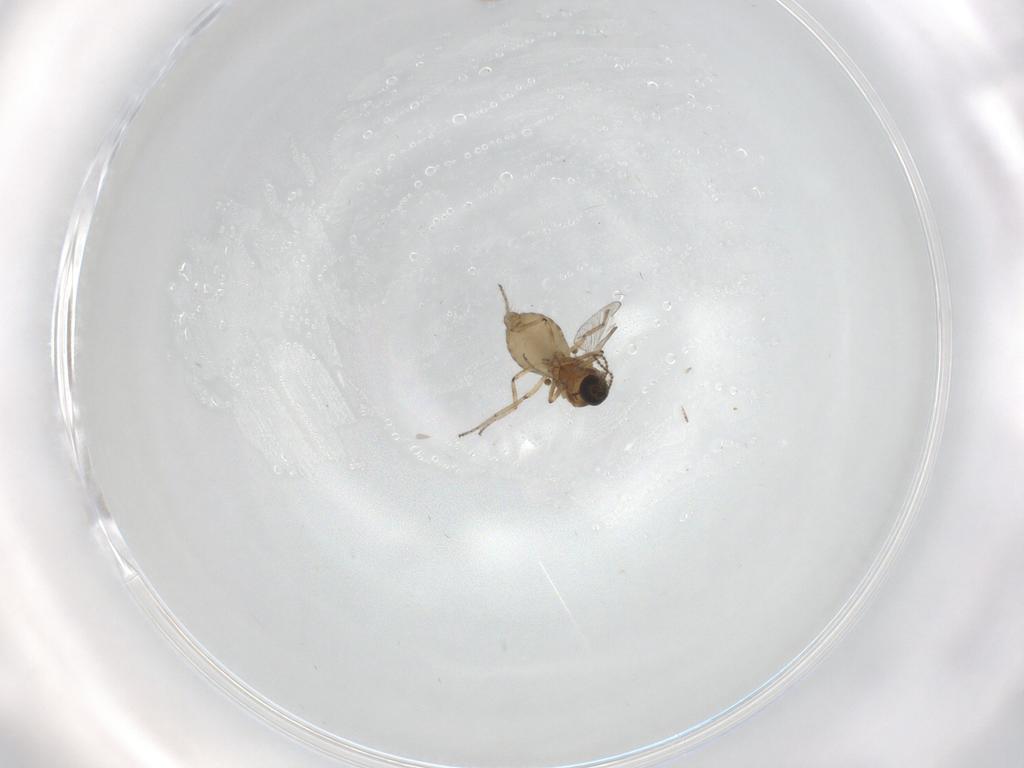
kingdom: Animalia
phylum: Arthropoda
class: Insecta
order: Diptera
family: Ceratopogonidae
